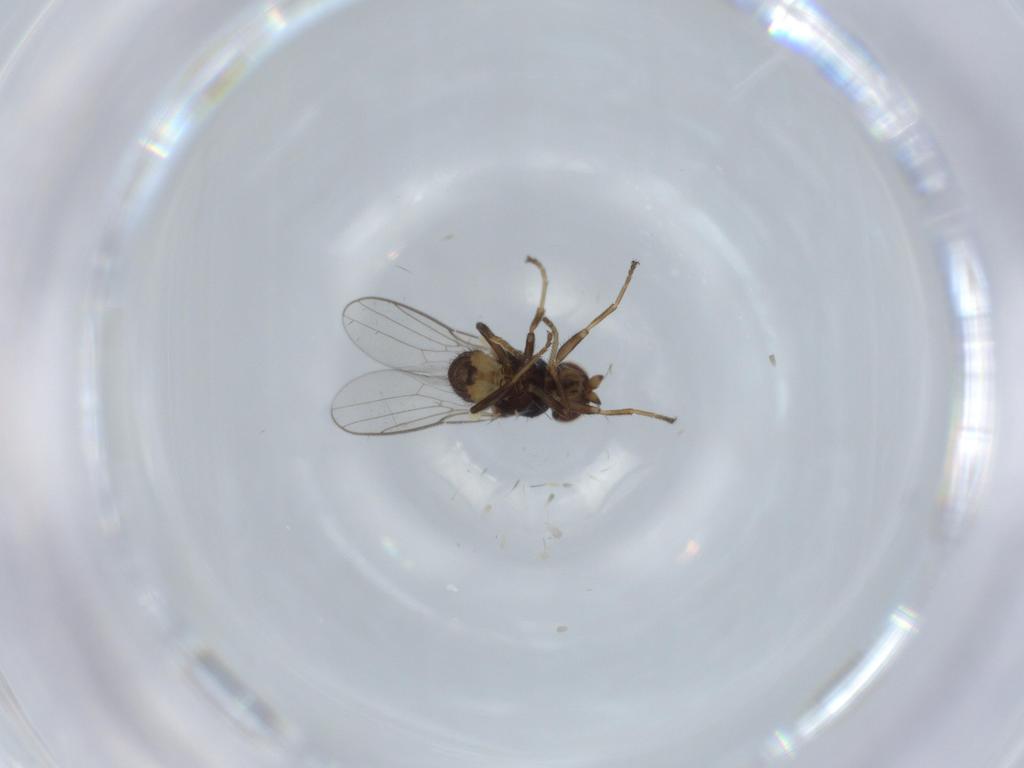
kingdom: Animalia
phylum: Arthropoda
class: Insecta
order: Diptera
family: Chloropidae
